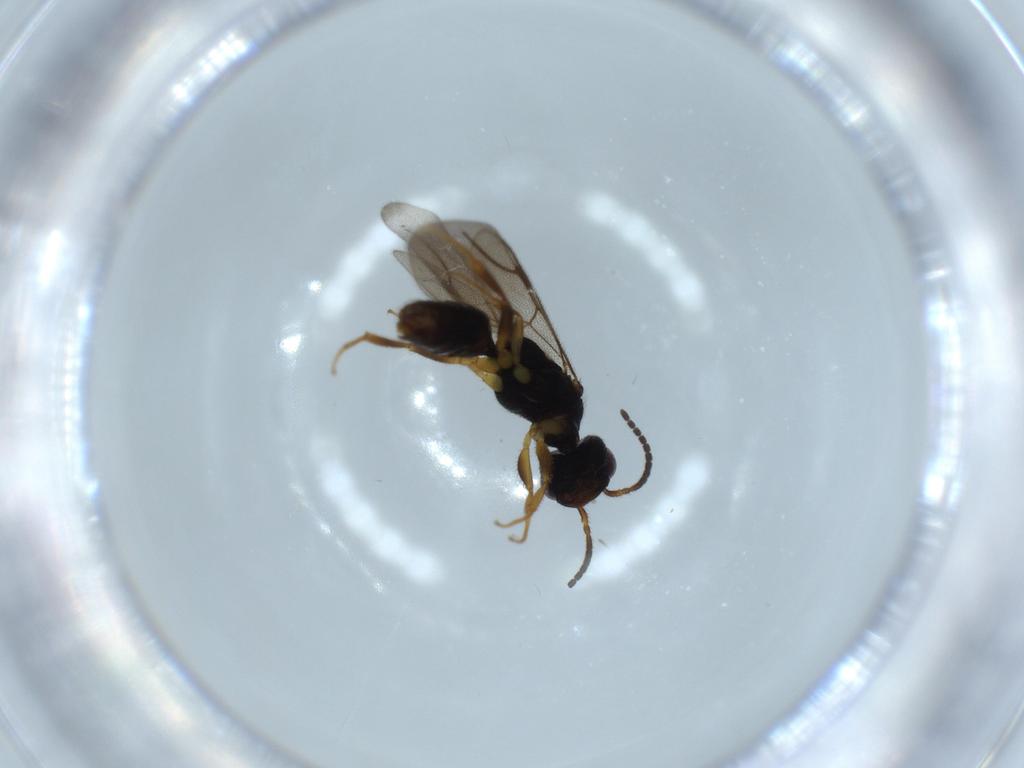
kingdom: Animalia
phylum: Arthropoda
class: Insecta
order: Hymenoptera
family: Bethylidae
